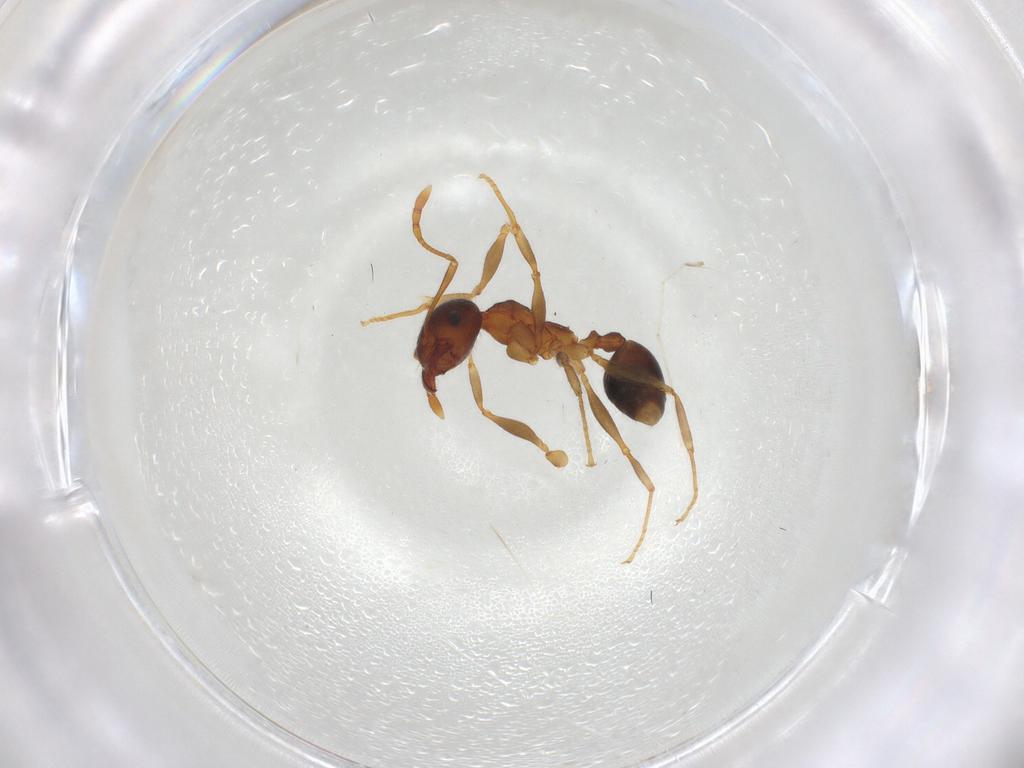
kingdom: Animalia
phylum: Arthropoda
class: Insecta
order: Hymenoptera
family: Formicidae
